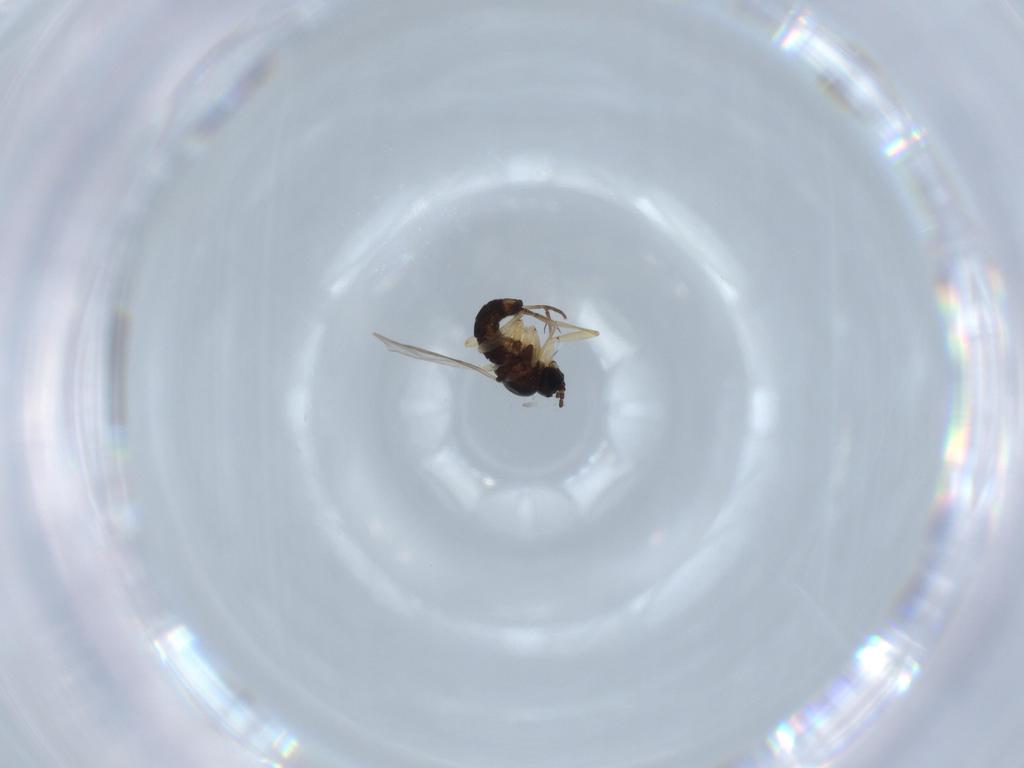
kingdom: Animalia
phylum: Arthropoda
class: Insecta
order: Diptera
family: Sciaridae
